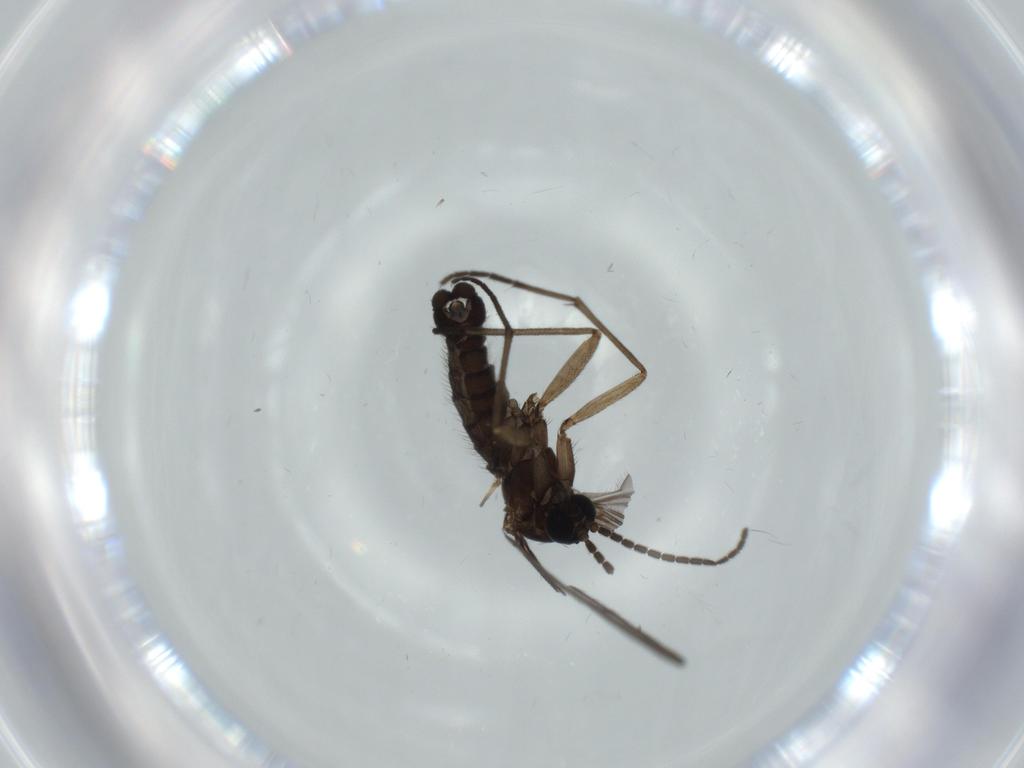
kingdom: Animalia
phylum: Arthropoda
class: Insecta
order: Diptera
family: Sciaridae
